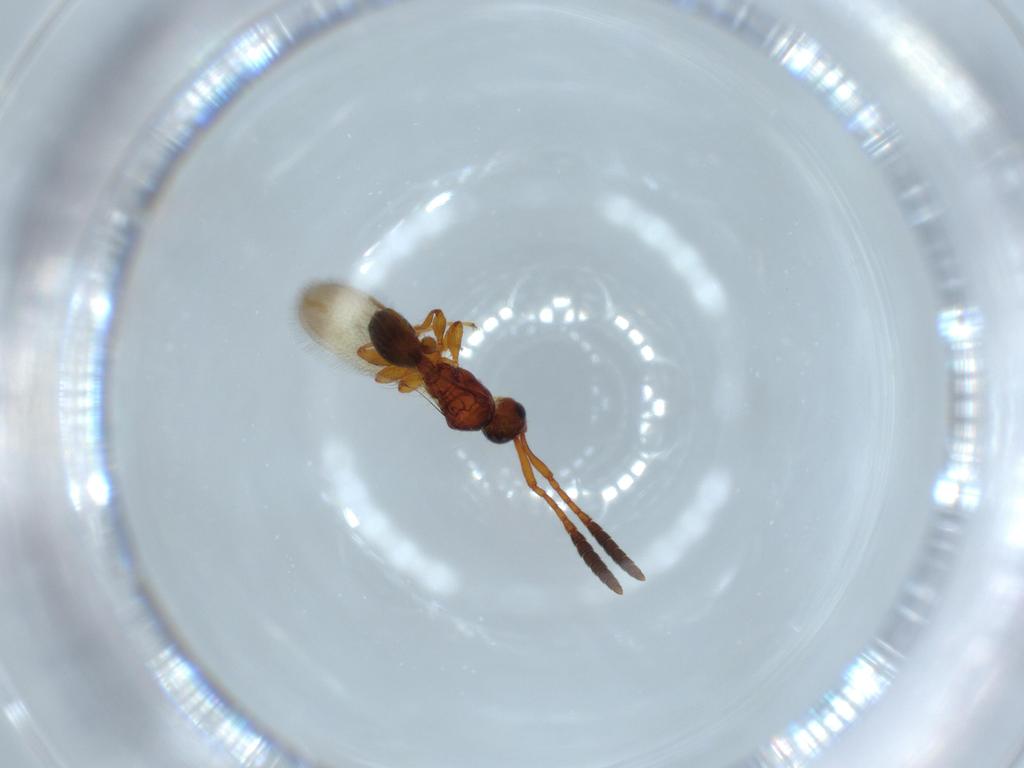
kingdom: Animalia
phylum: Arthropoda
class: Insecta
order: Hymenoptera
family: Diapriidae
